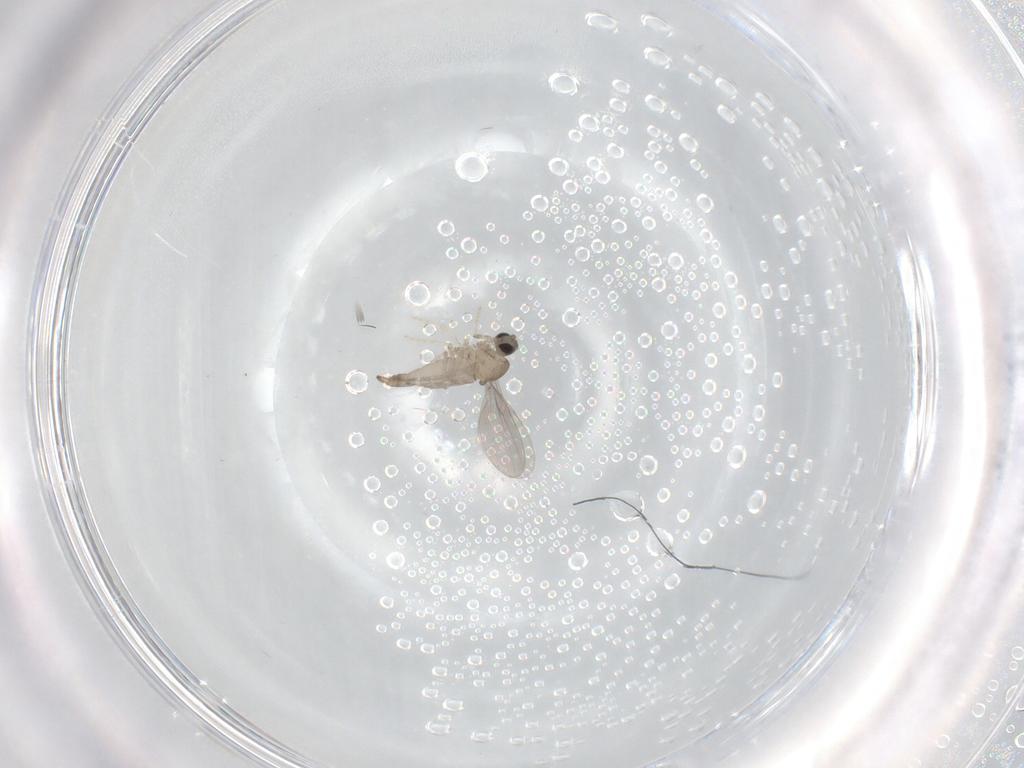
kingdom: Animalia
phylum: Arthropoda
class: Insecta
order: Diptera
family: Cecidomyiidae
